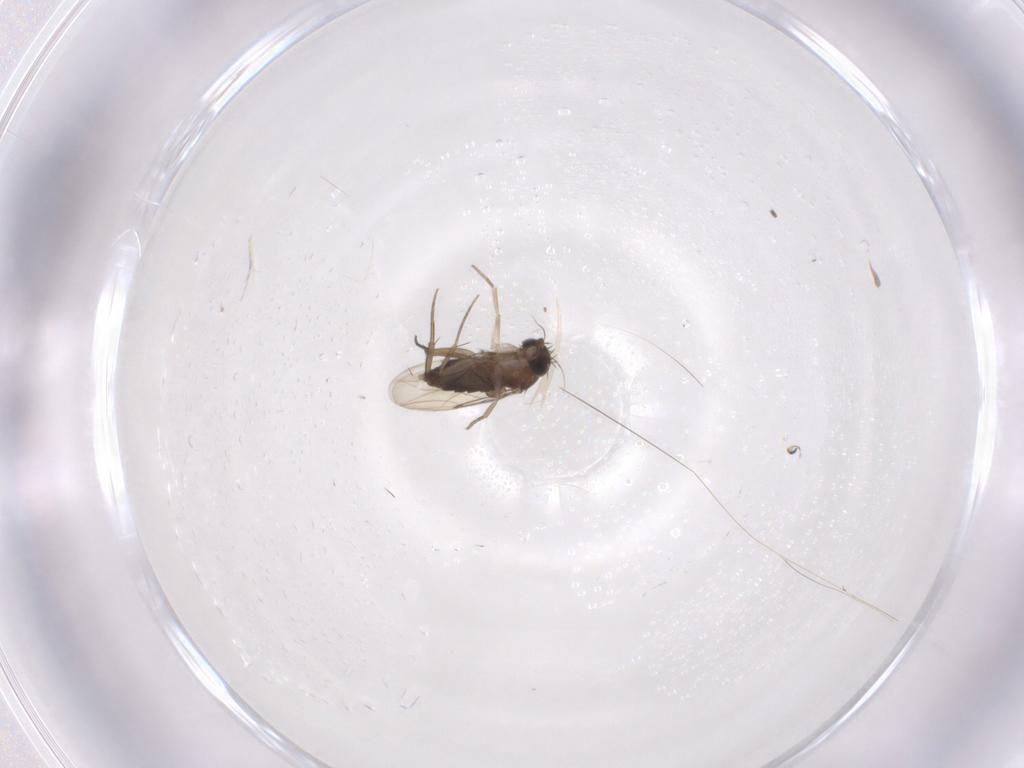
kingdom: Animalia
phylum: Arthropoda
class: Insecta
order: Diptera
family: Phoridae
